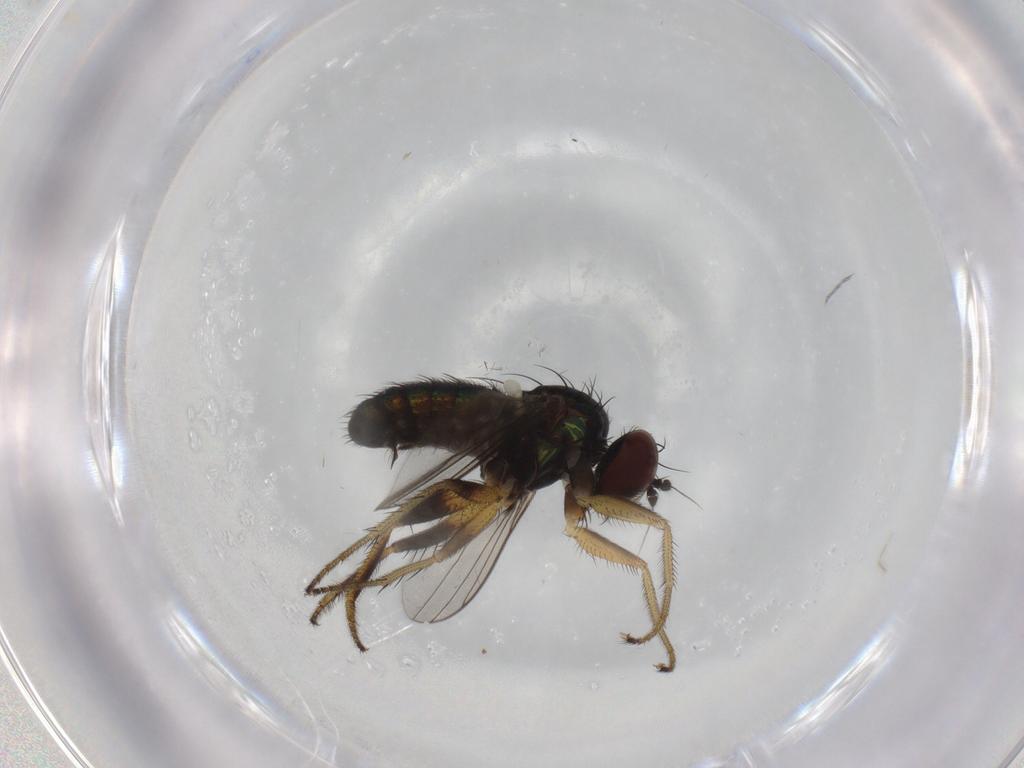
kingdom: Animalia
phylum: Arthropoda
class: Insecta
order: Diptera
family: Dolichopodidae
